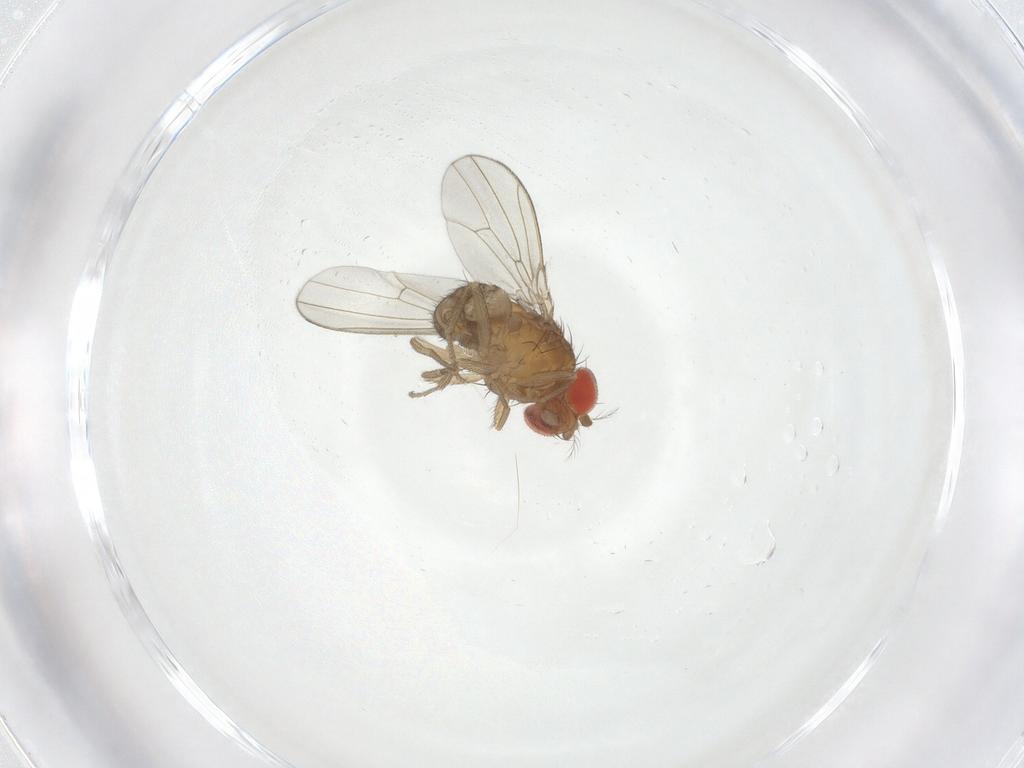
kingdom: Animalia
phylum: Arthropoda
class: Insecta
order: Diptera
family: Drosophilidae
